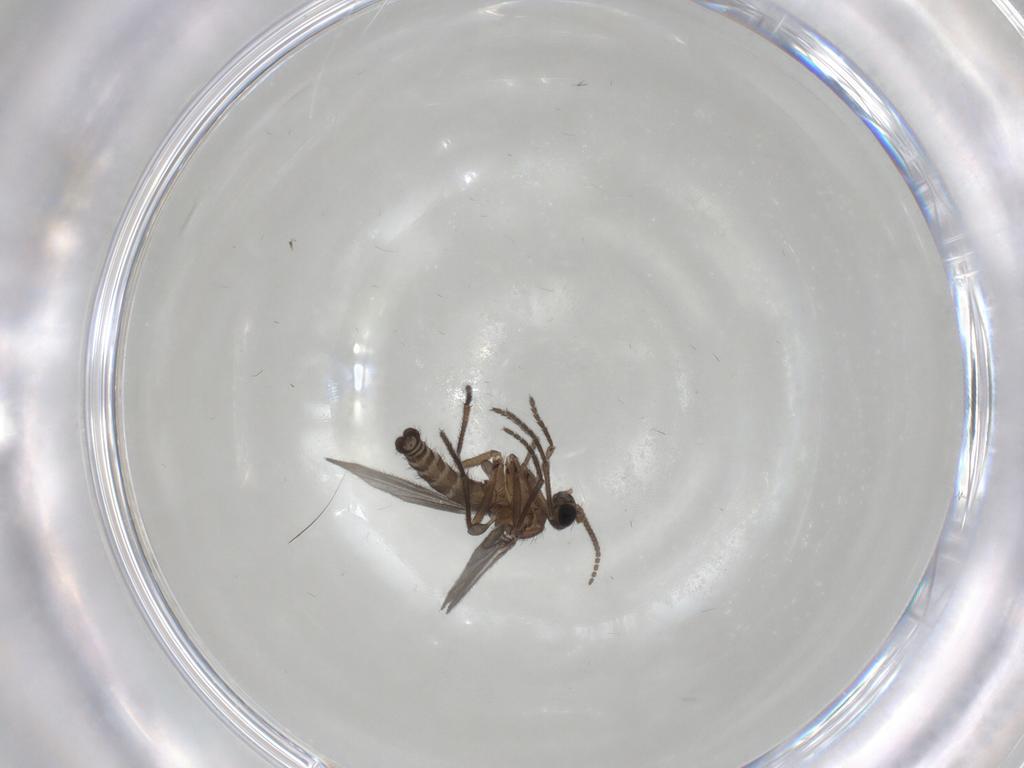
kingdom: Animalia
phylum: Arthropoda
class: Insecta
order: Diptera
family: Sciaridae
